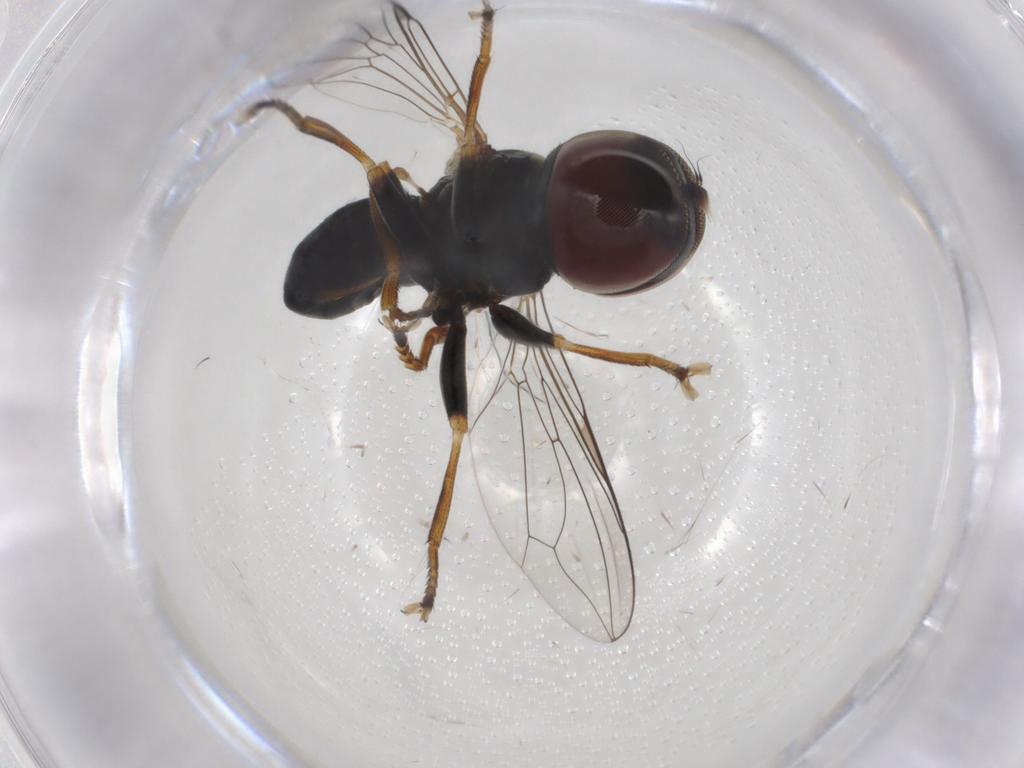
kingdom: Animalia
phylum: Arthropoda
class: Insecta
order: Diptera
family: Pipunculidae
